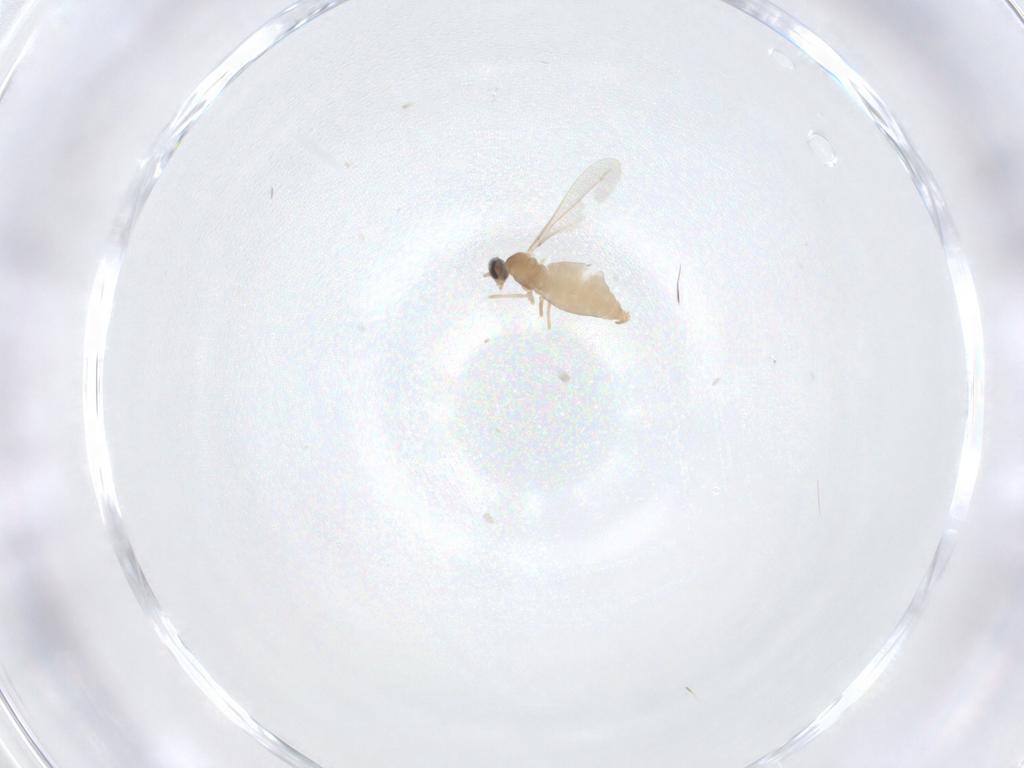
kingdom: Animalia
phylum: Arthropoda
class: Insecta
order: Diptera
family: Cecidomyiidae
